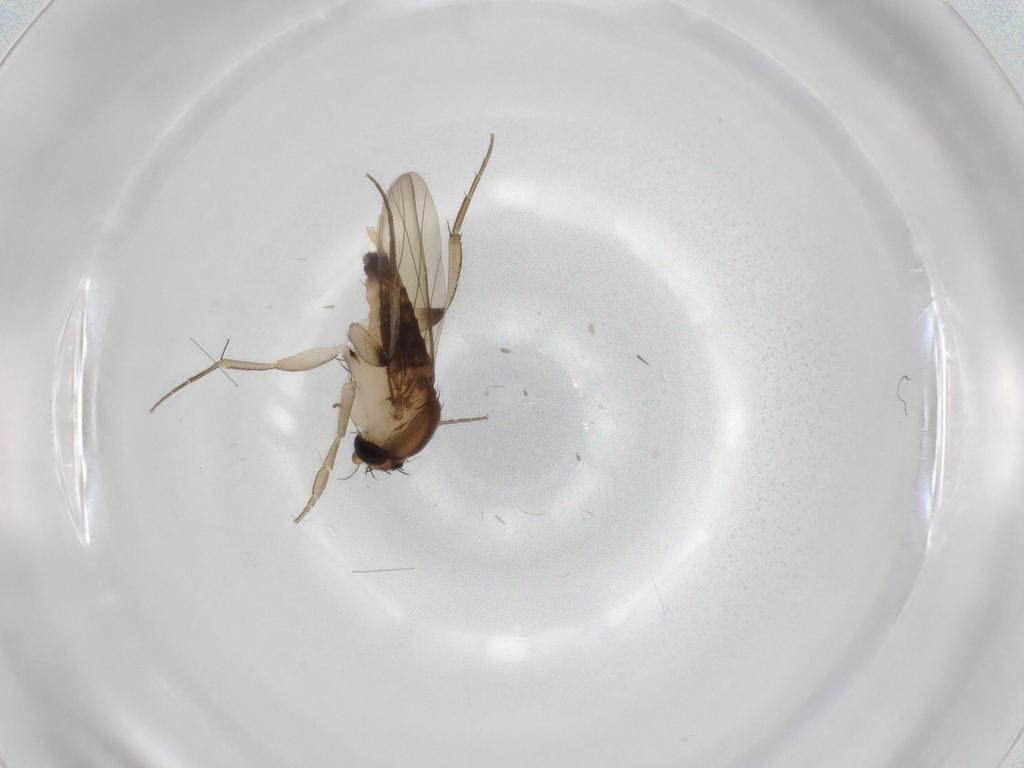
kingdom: Animalia
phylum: Arthropoda
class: Insecta
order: Diptera
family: Phoridae
